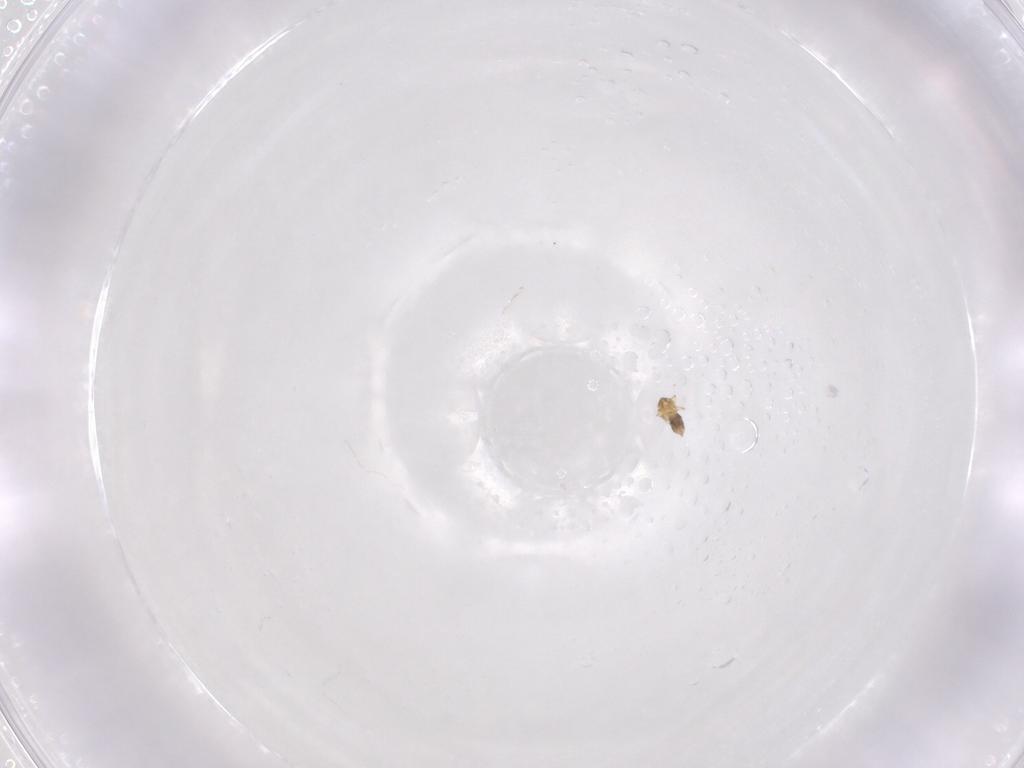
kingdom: Animalia
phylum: Arthropoda
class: Insecta
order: Hymenoptera
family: Trichogrammatidae
